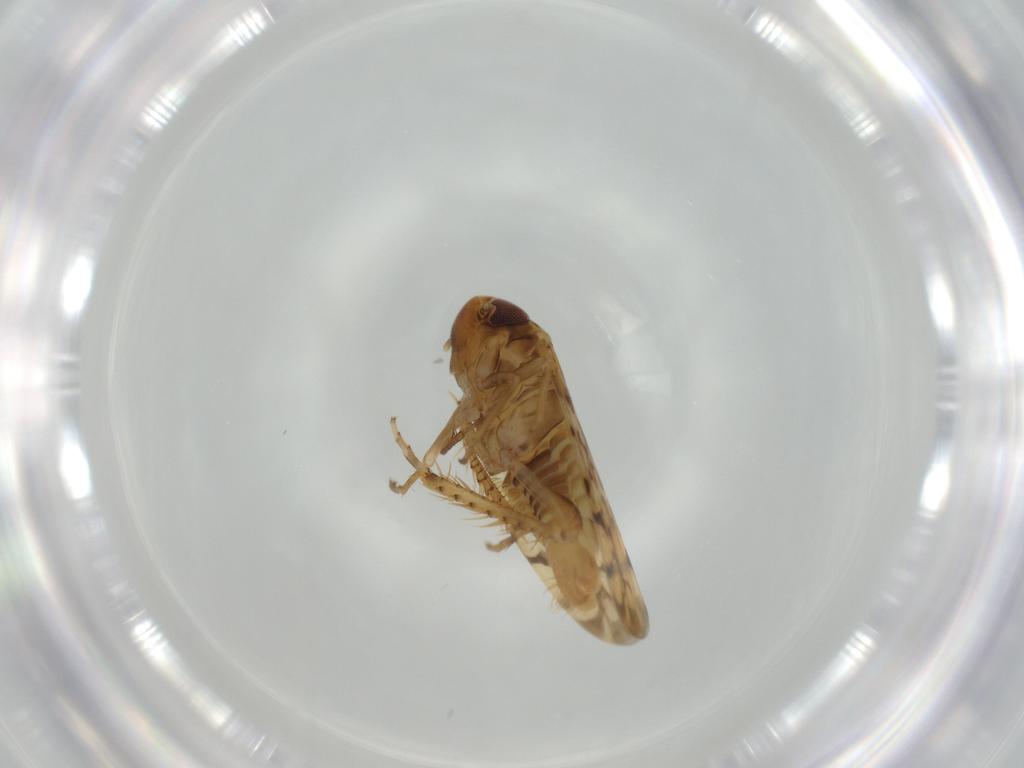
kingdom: Animalia
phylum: Arthropoda
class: Insecta
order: Hemiptera
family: Cicadellidae
